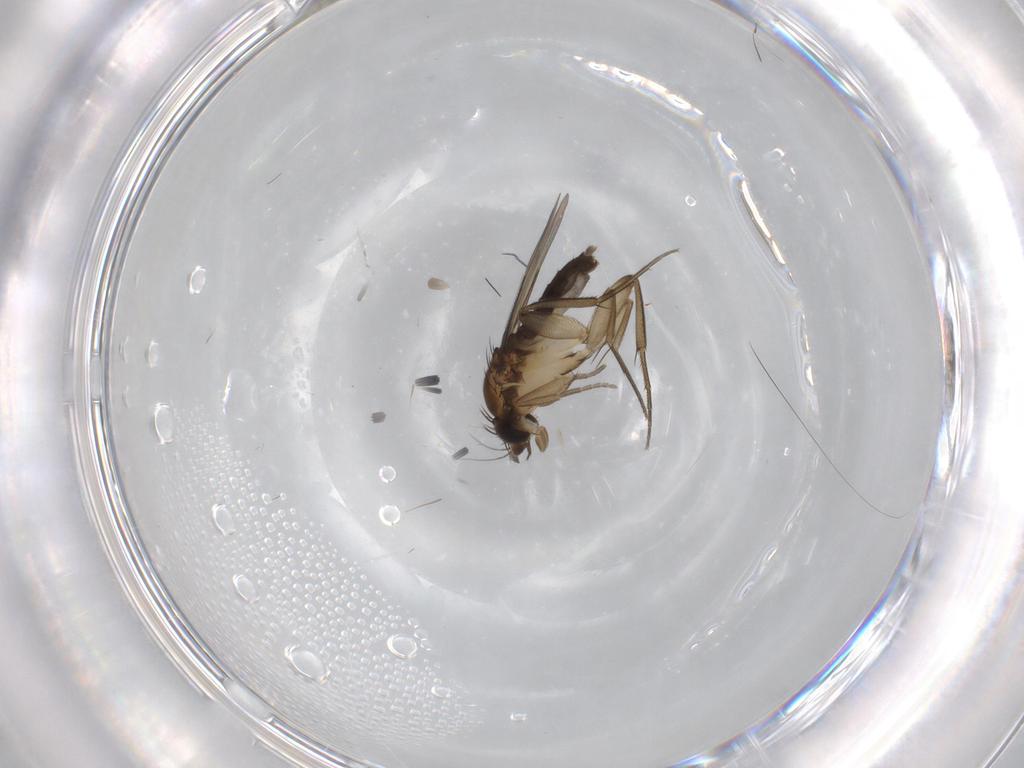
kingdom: Animalia
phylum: Arthropoda
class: Insecta
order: Diptera
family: Phoridae
